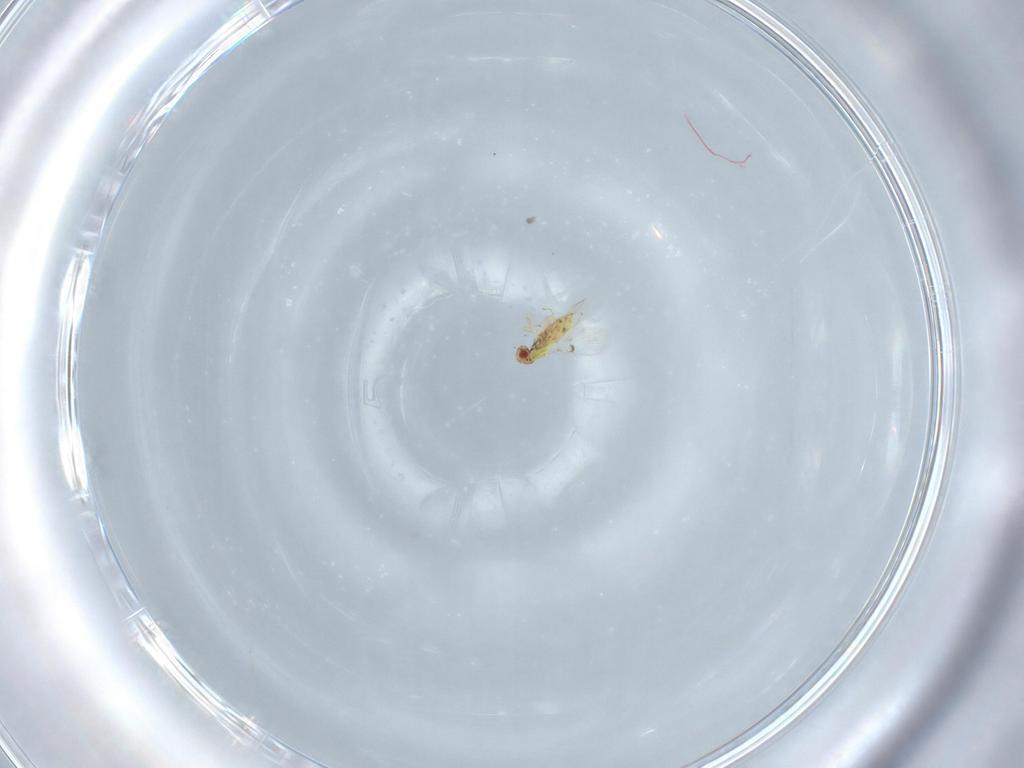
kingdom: Animalia
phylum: Arthropoda
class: Insecta
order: Hymenoptera
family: Trichogrammatidae
